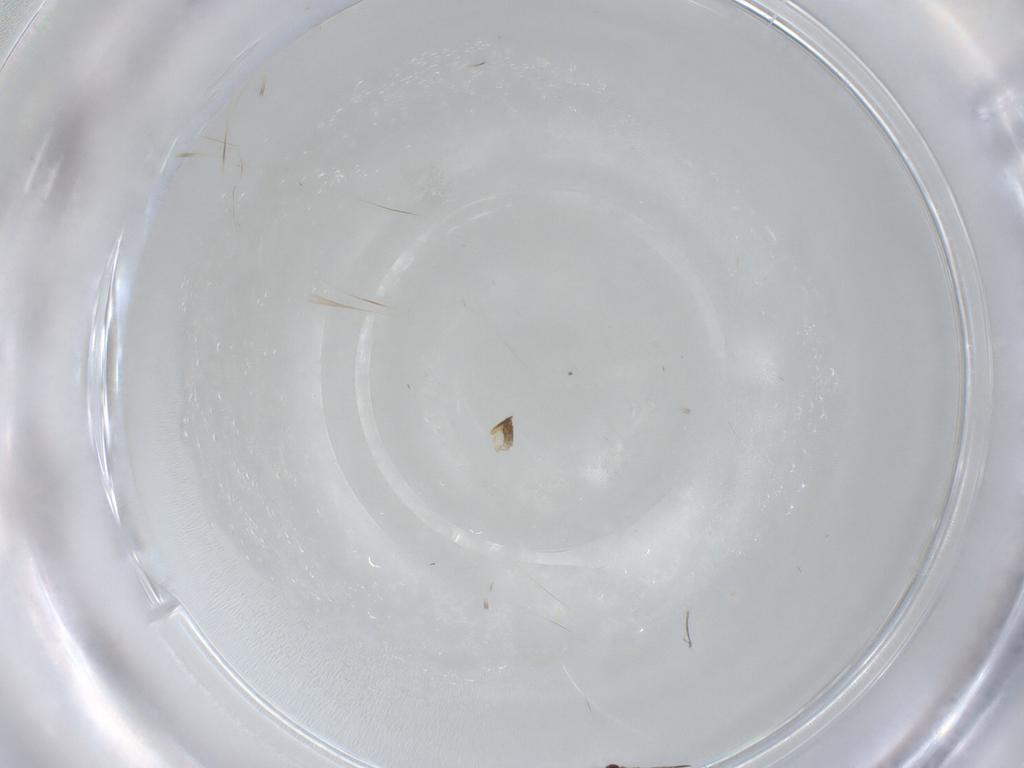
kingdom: Animalia
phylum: Arthropoda
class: Insecta
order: Hymenoptera
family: Mymaridae
